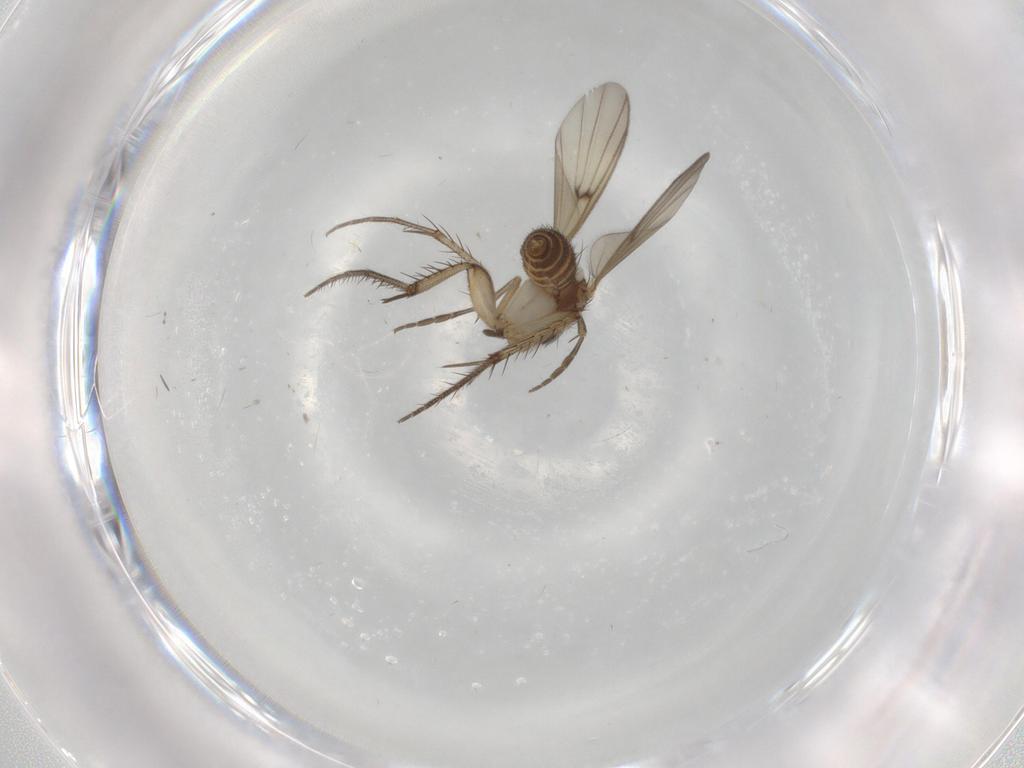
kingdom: Animalia
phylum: Arthropoda
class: Insecta
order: Diptera
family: Mycetophilidae
